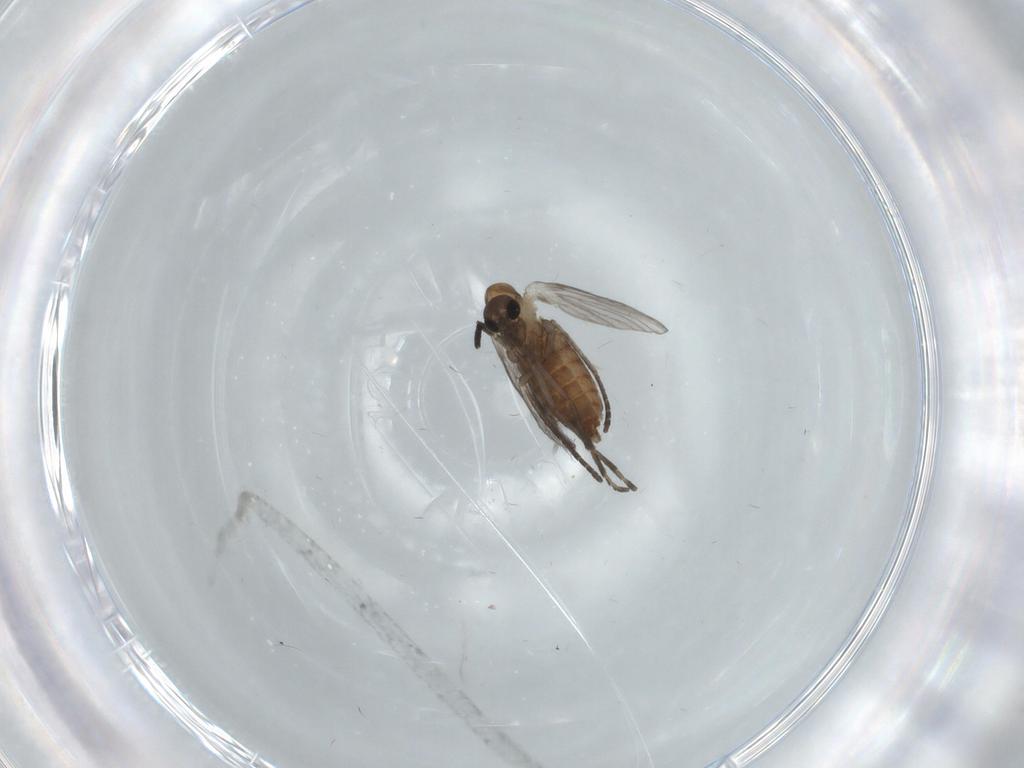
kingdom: Animalia
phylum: Arthropoda
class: Insecta
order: Diptera
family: Psychodidae
